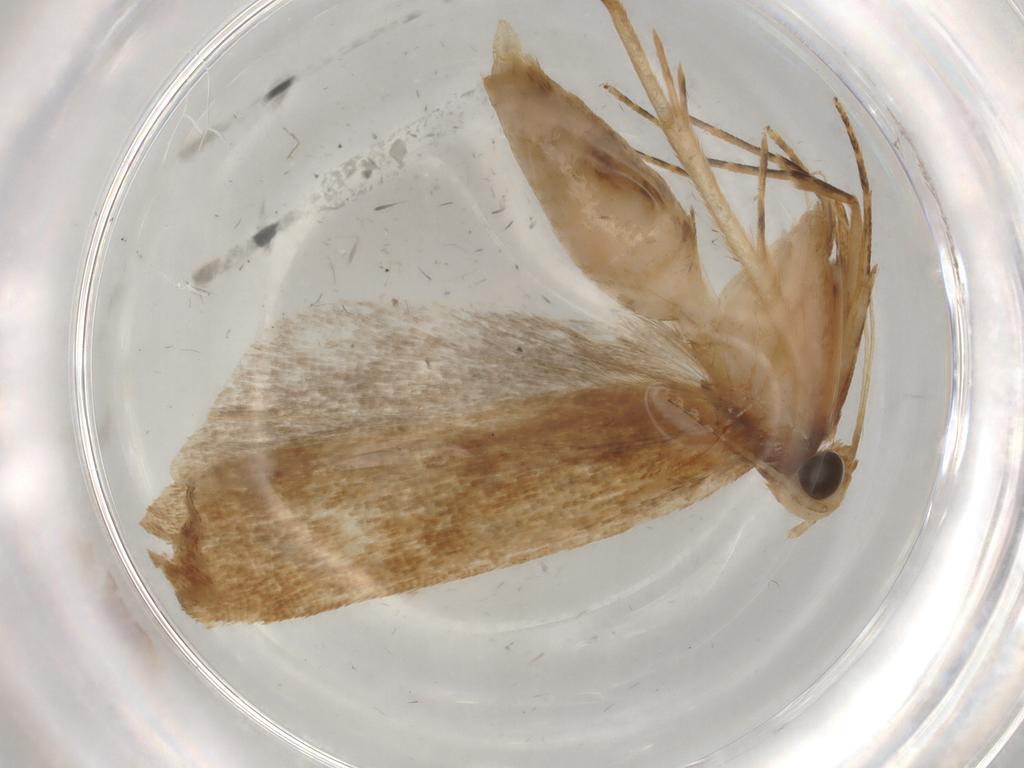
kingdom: Animalia
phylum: Arthropoda
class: Insecta
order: Lepidoptera
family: Gelechiidae
